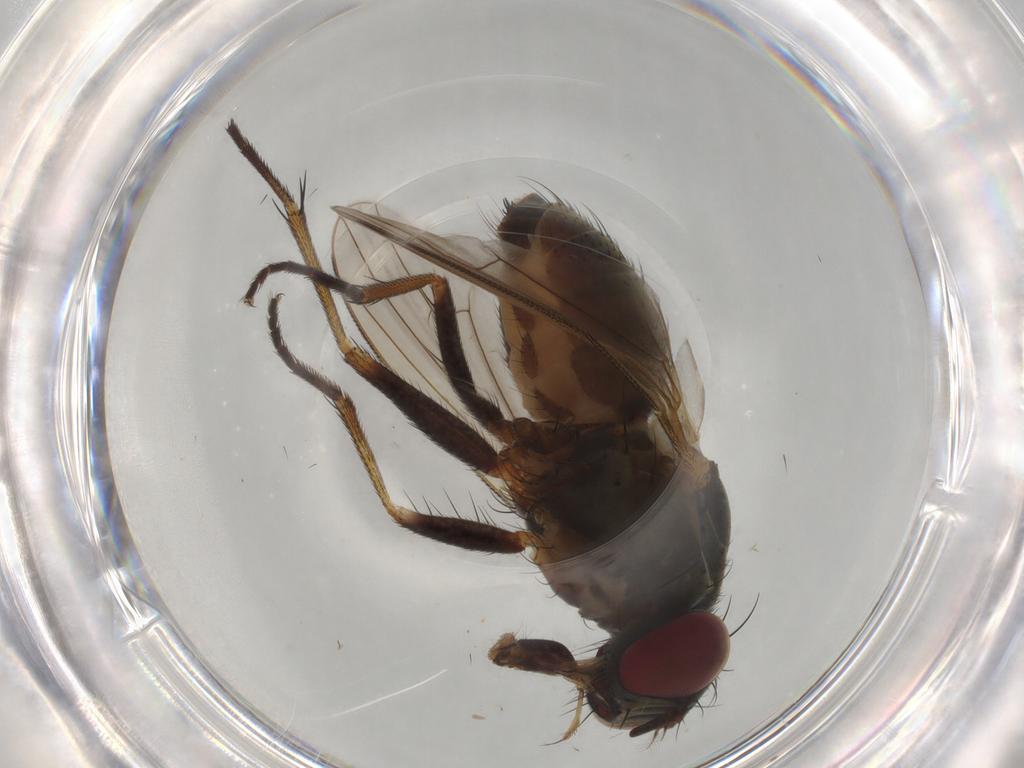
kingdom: Animalia
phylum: Arthropoda
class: Insecta
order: Diptera
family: Muscidae
